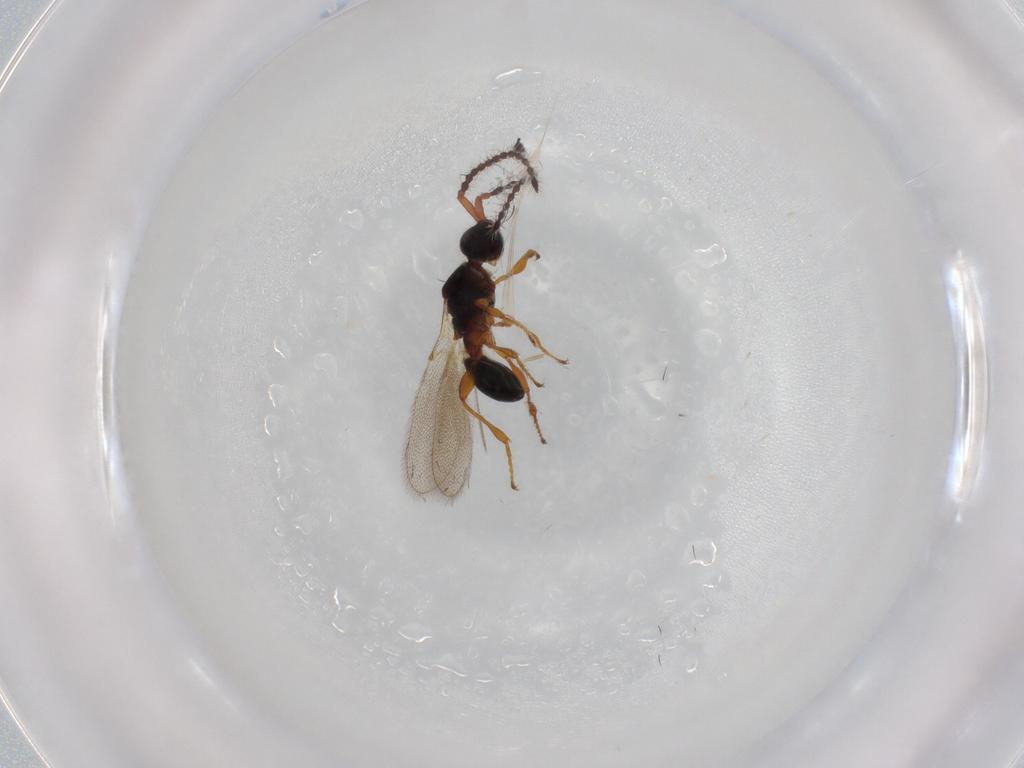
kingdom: Animalia
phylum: Arthropoda
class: Insecta
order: Hymenoptera
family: Diapriidae
